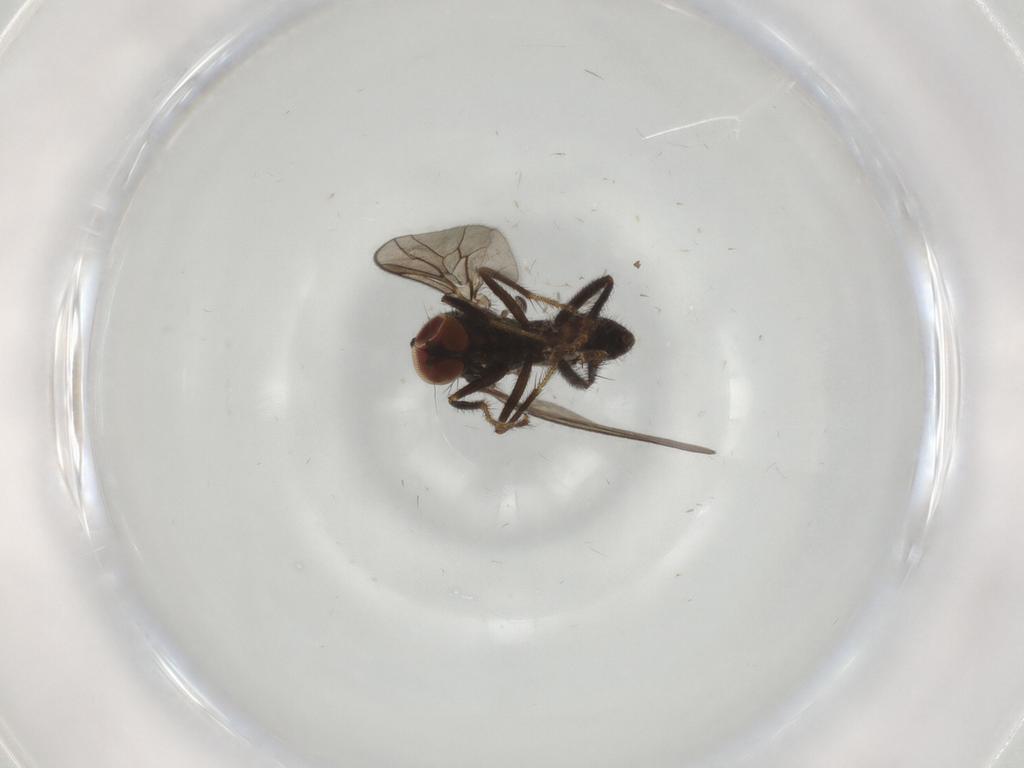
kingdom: Animalia
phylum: Arthropoda
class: Insecta
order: Diptera
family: Hybotidae
